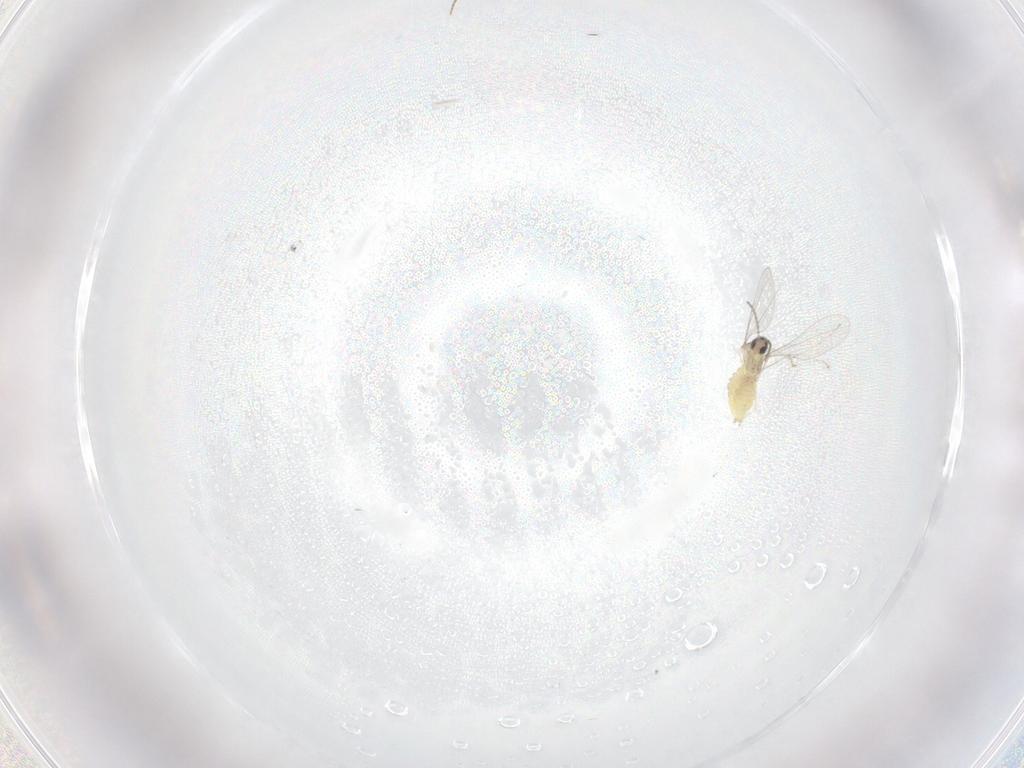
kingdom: Animalia
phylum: Arthropoda
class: Insecta
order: Diptera
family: Cecidomyiidae
